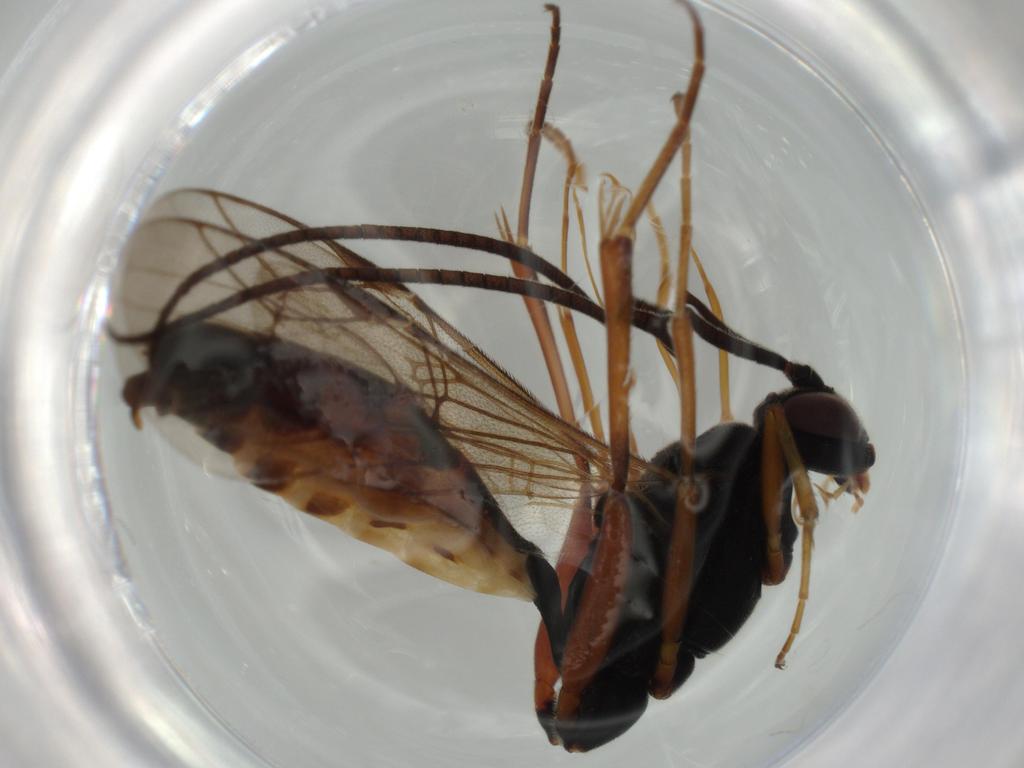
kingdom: Animalia
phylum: Arthropoda
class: Insecta
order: Hymenoptera
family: Ichneumonidae
